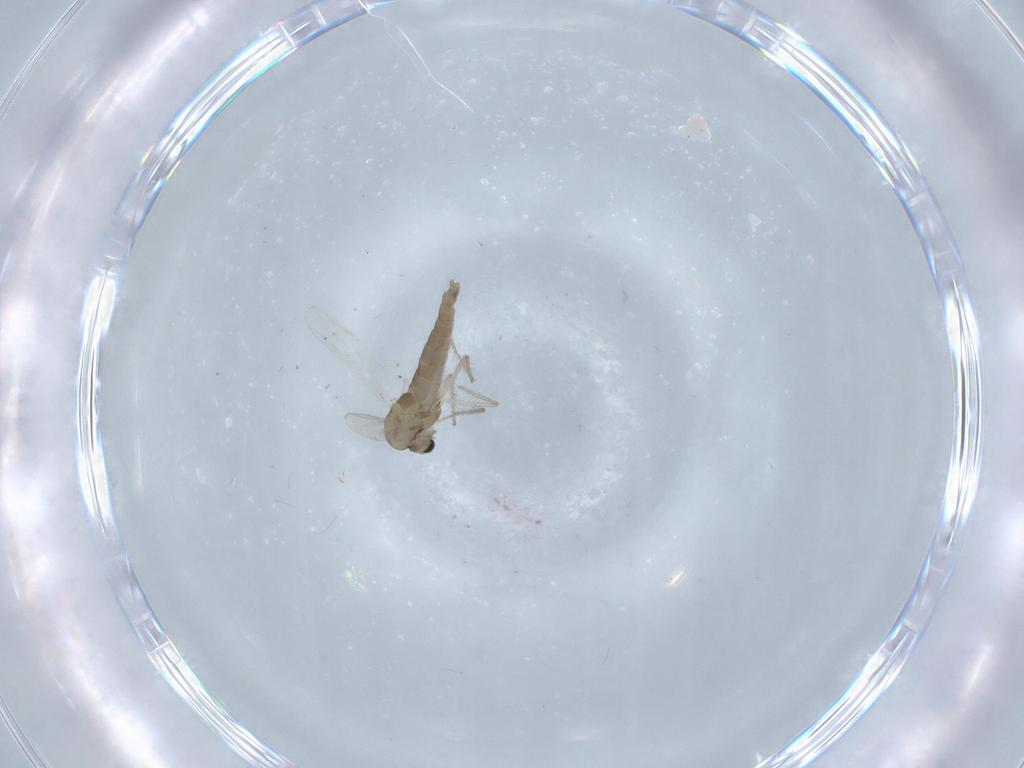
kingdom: Animalia
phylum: Arthropoda
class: Insecta
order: Diptera
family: Chironomidae
